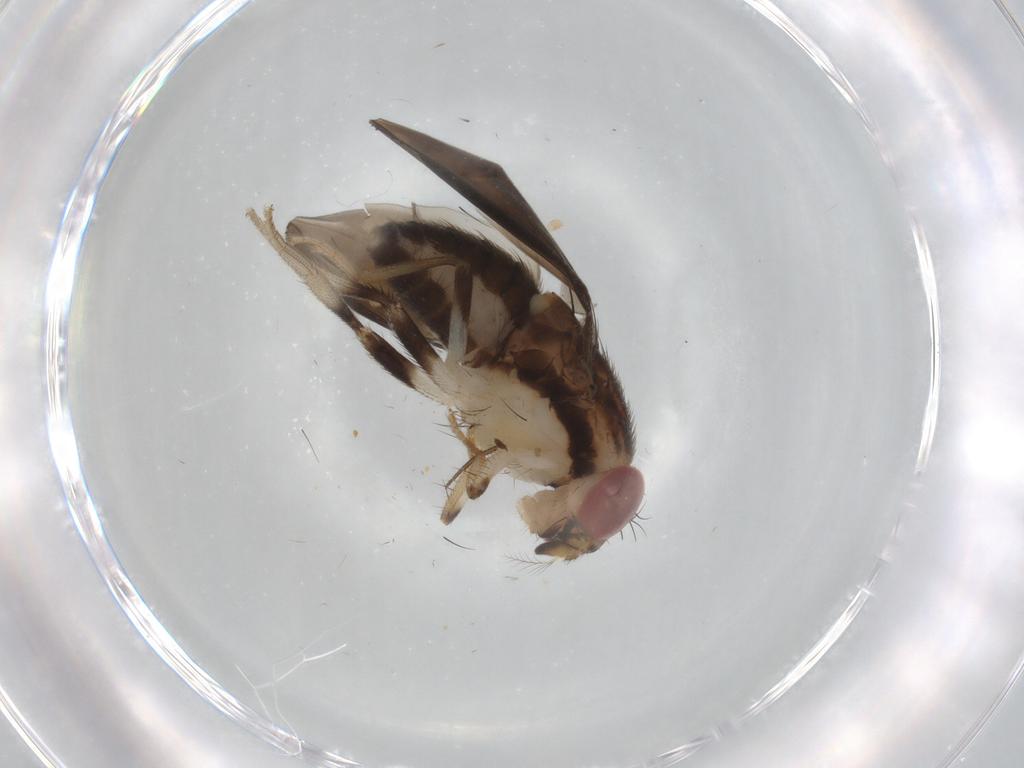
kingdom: Animalia
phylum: Arthropoda
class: Insecta
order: Diptera
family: Drosophilidae
